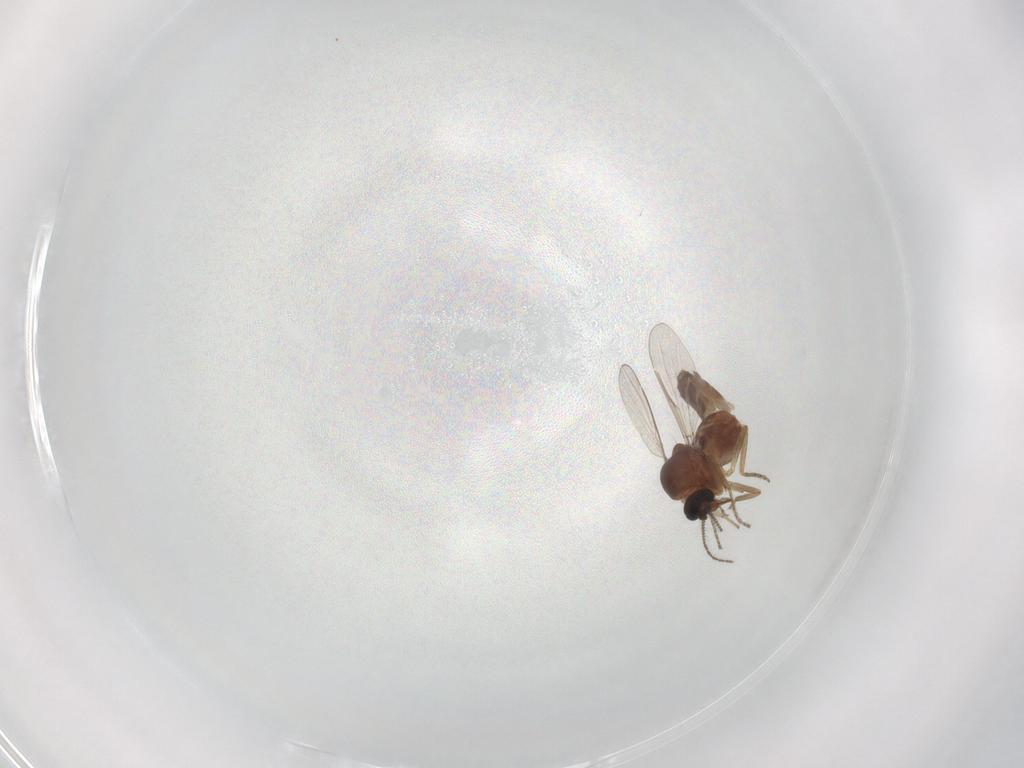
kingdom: Animalia
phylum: Arthropoda
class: Insecta
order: Diptera
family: Ceratopogonidae
